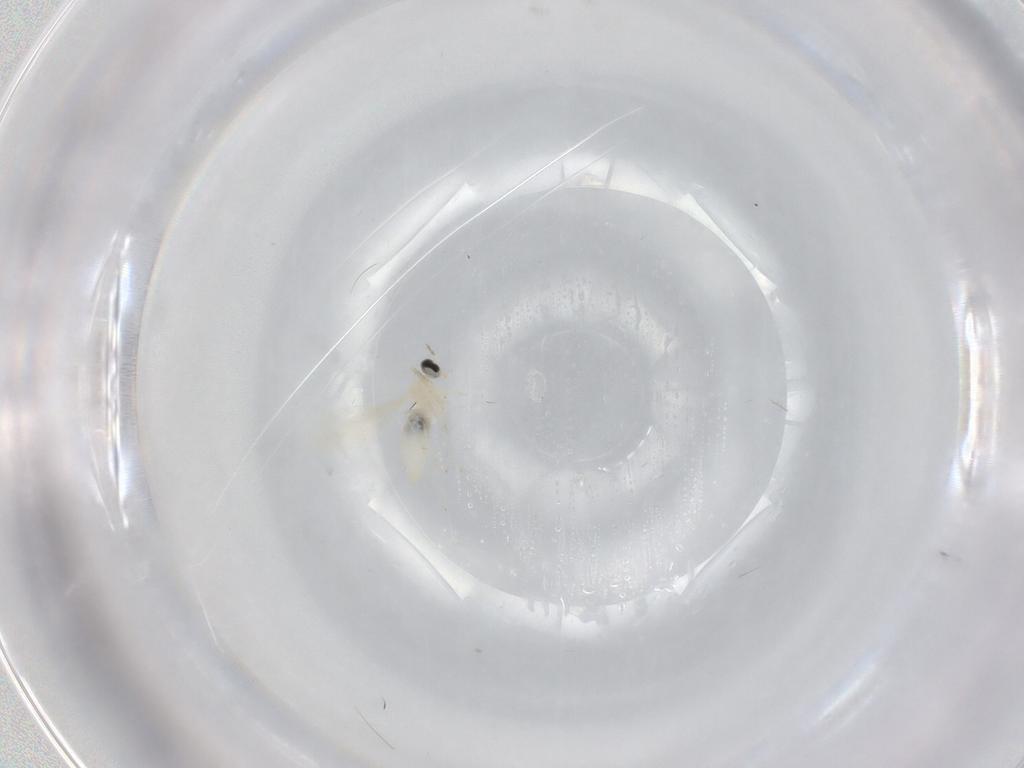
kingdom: Animalia
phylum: Arthropoda
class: Insecta
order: Diptera
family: Cecidomyiidae
